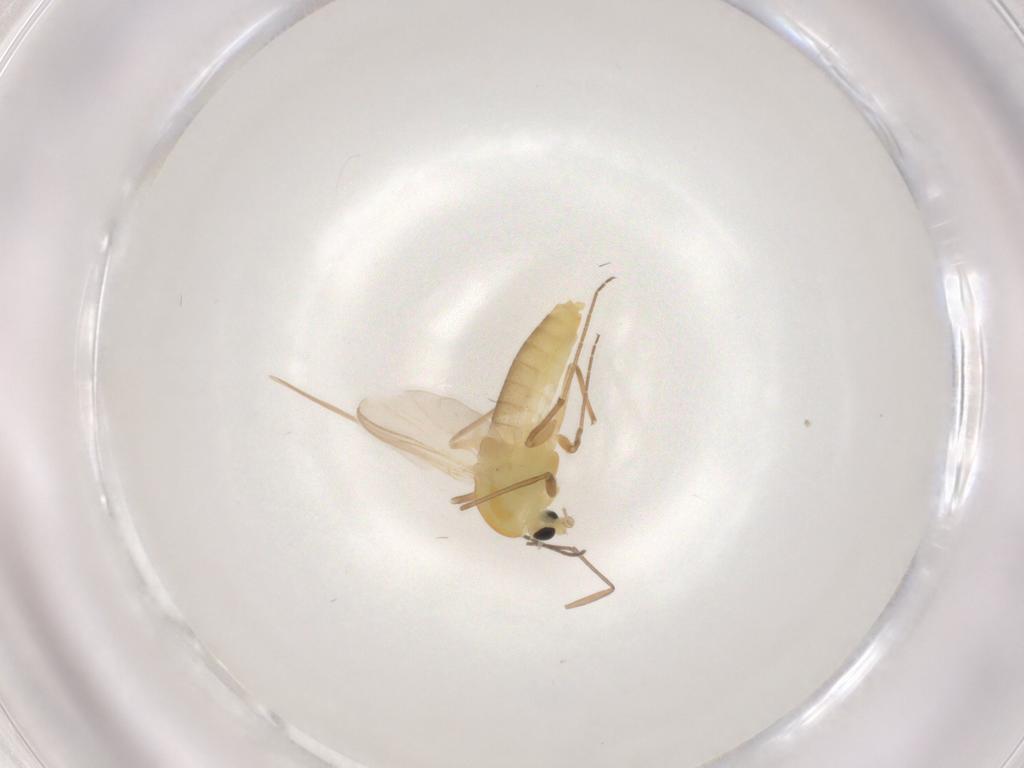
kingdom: Animalia
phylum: Arthropoda
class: Insecta
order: Diptera
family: Sciaridae
